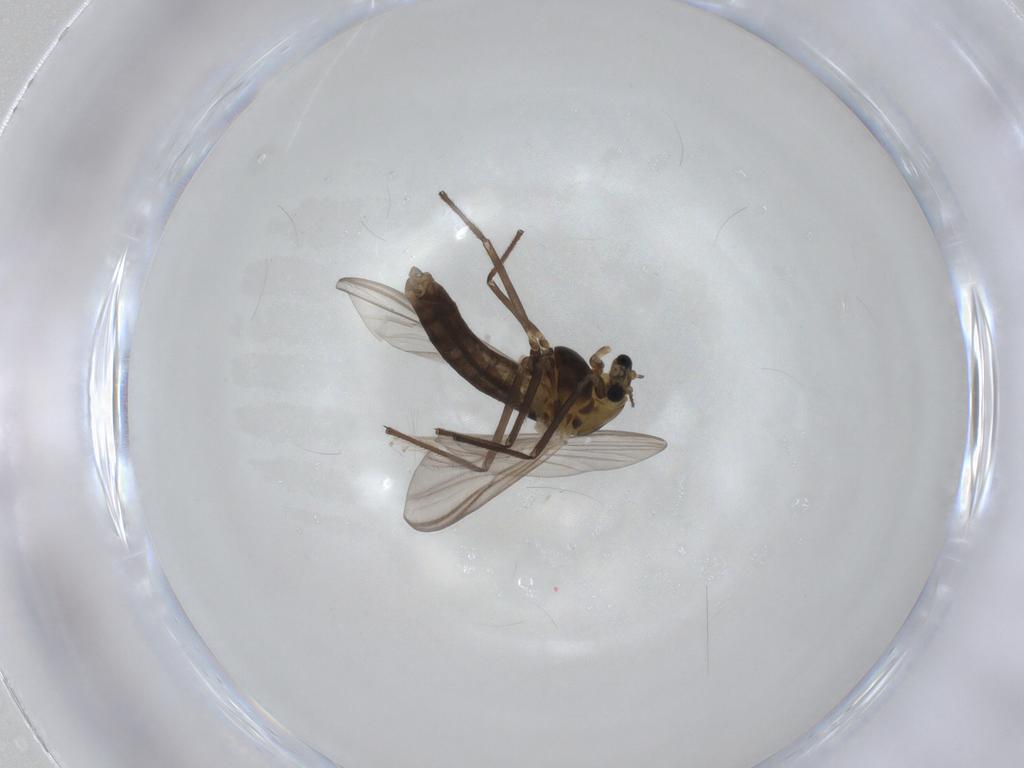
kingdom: Animalia
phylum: Arthropoda
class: Insecta
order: Diptera
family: Chironomidae
